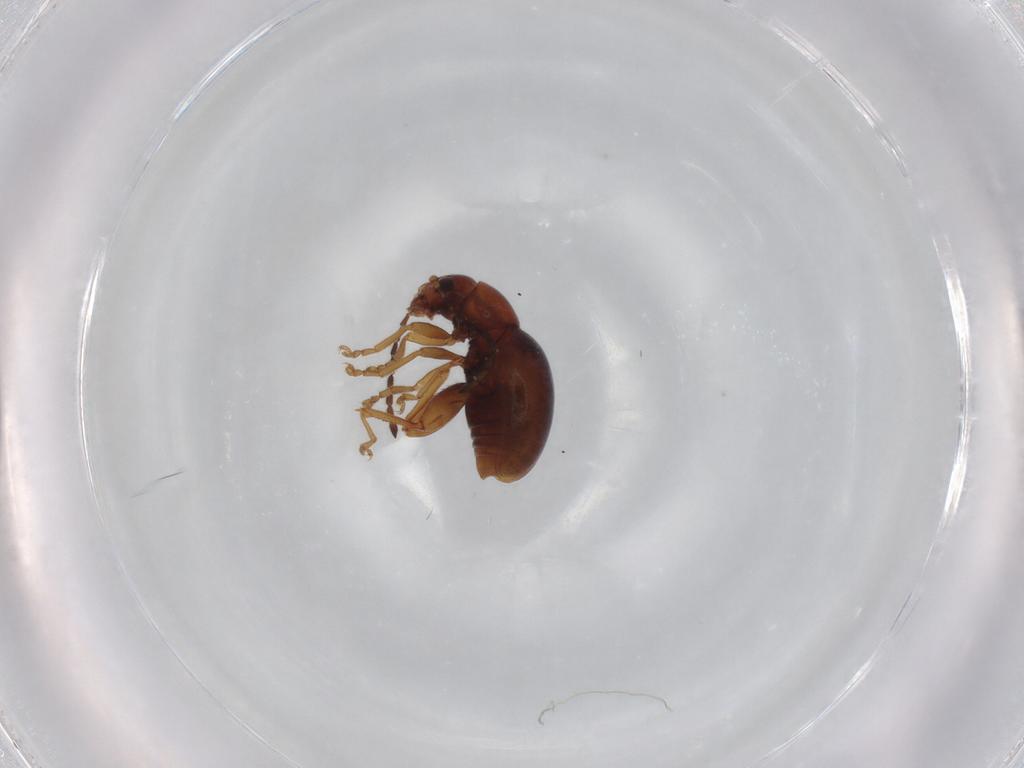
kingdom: Animalia
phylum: Arthropoda
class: Insecta
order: Coleoptera
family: Chrysomelidae
